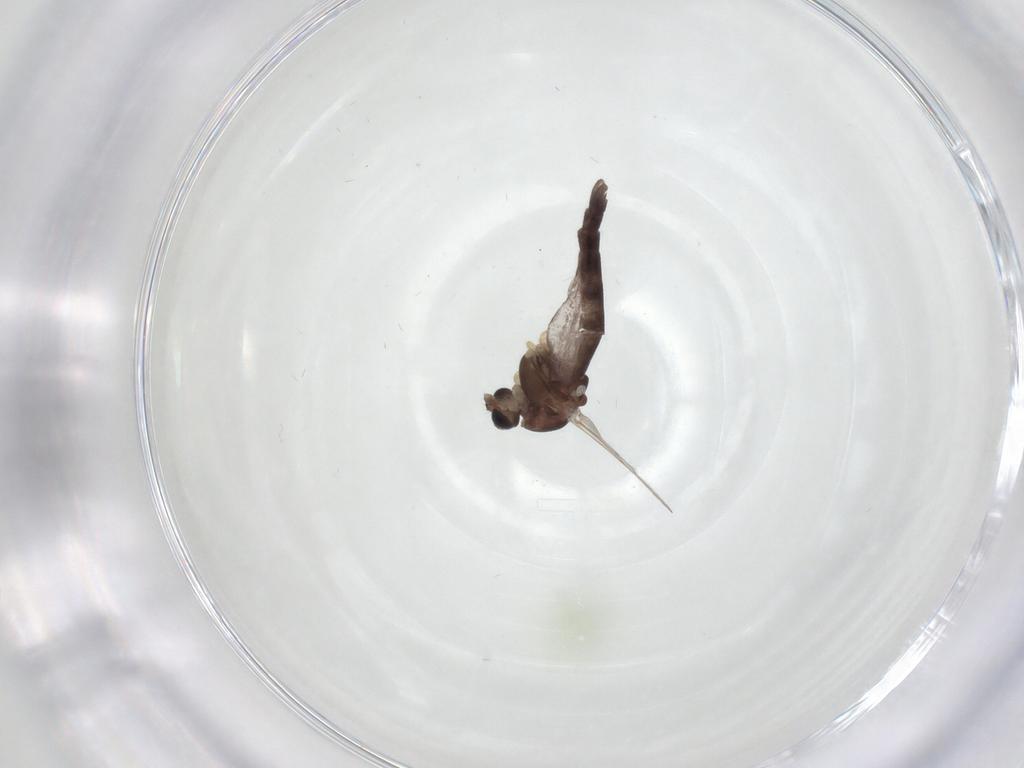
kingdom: Animalia
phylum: Arthropoda
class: Insecta
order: Diptera
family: Chironomidae
